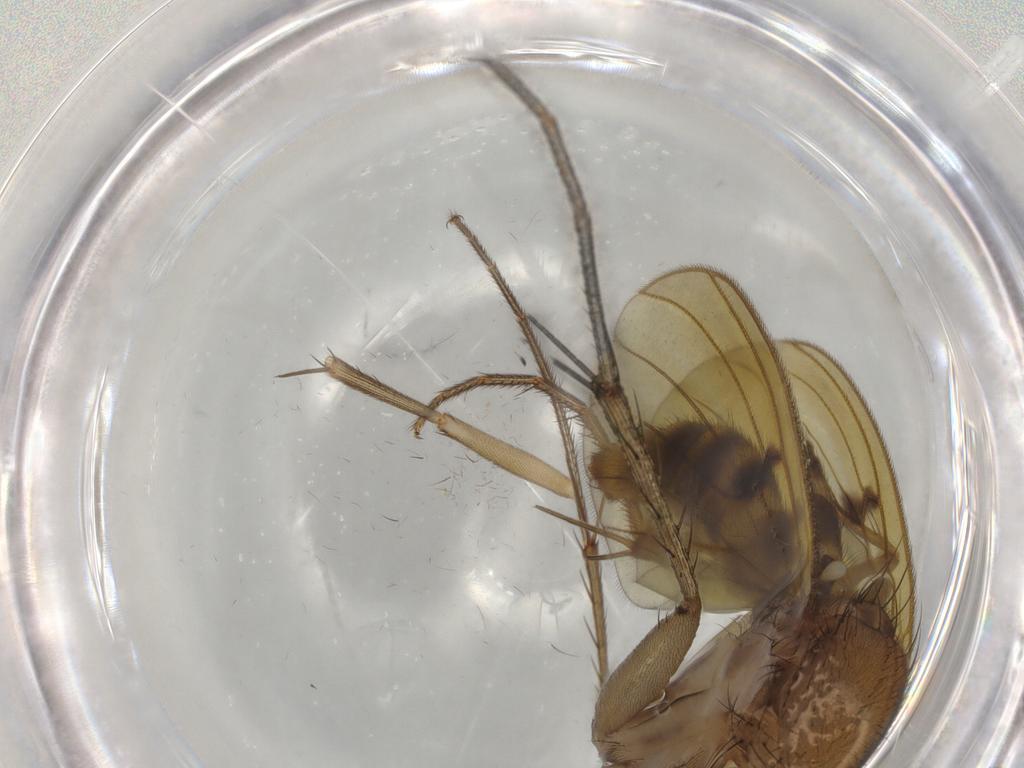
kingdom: Animalia
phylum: Arthropoda
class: Insecta
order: Diptera
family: Phoridae
